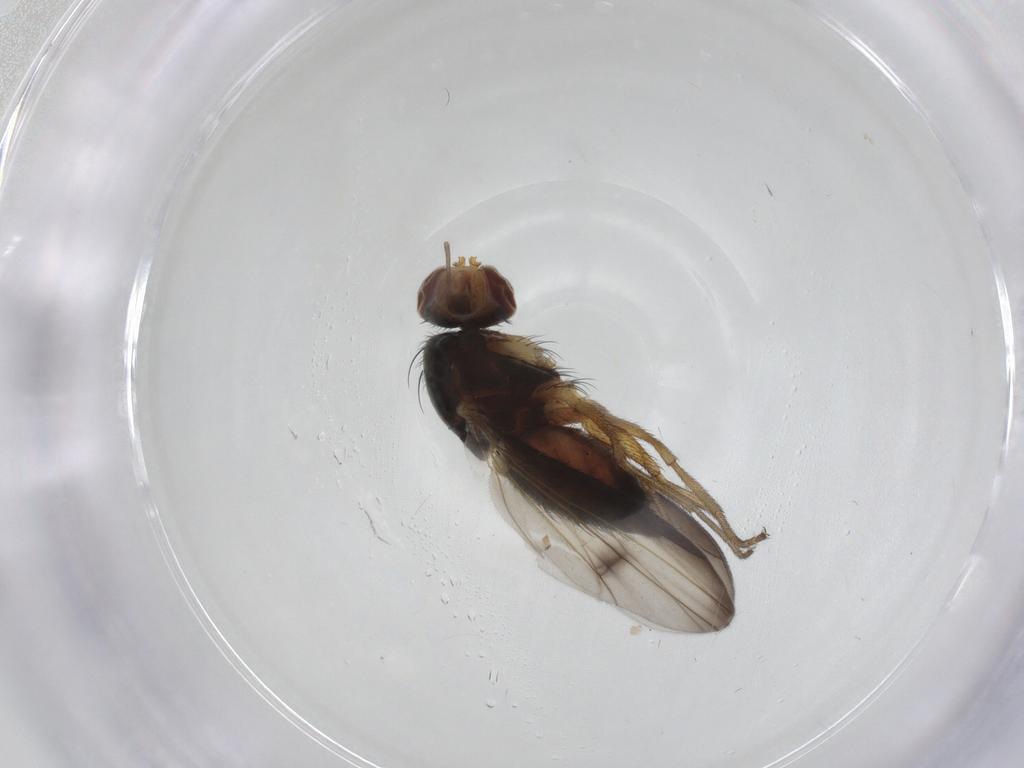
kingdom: Animalia
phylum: Arthropoda
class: Insecta
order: Diptera
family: Heleomyzidae
